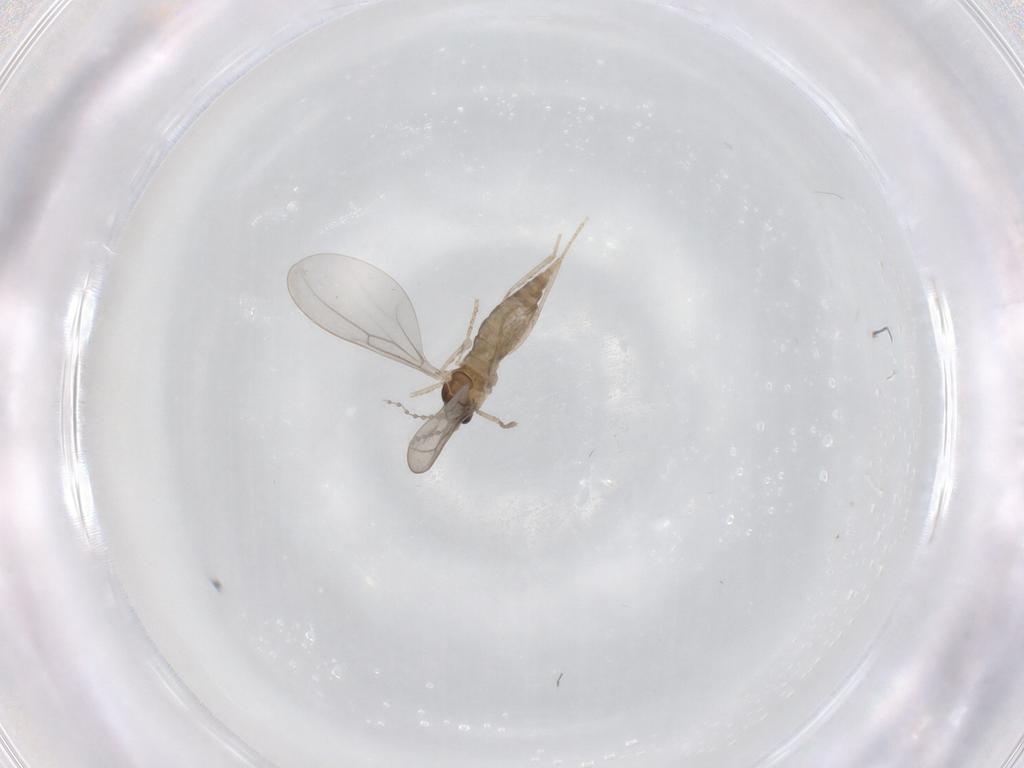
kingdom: Animalia
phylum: Arthropoda
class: Insecta
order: Diptera
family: Cecidomyiidae
